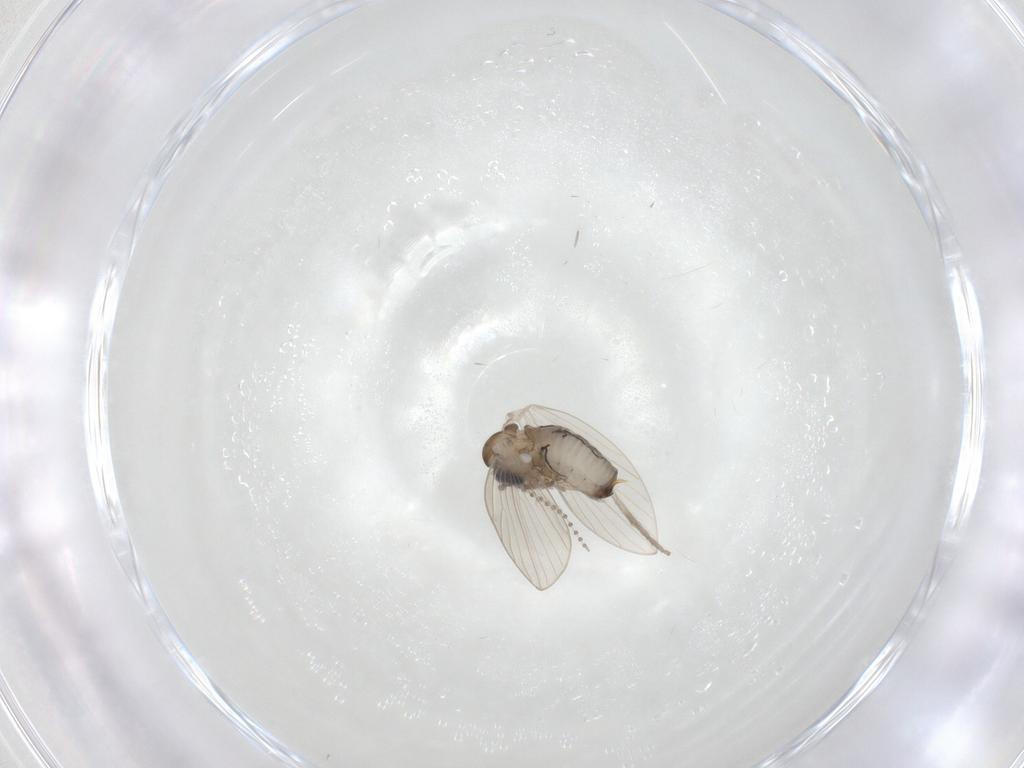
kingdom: Animalia
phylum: Arthropoda
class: Insecta
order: Diptera
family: Psychodidae
